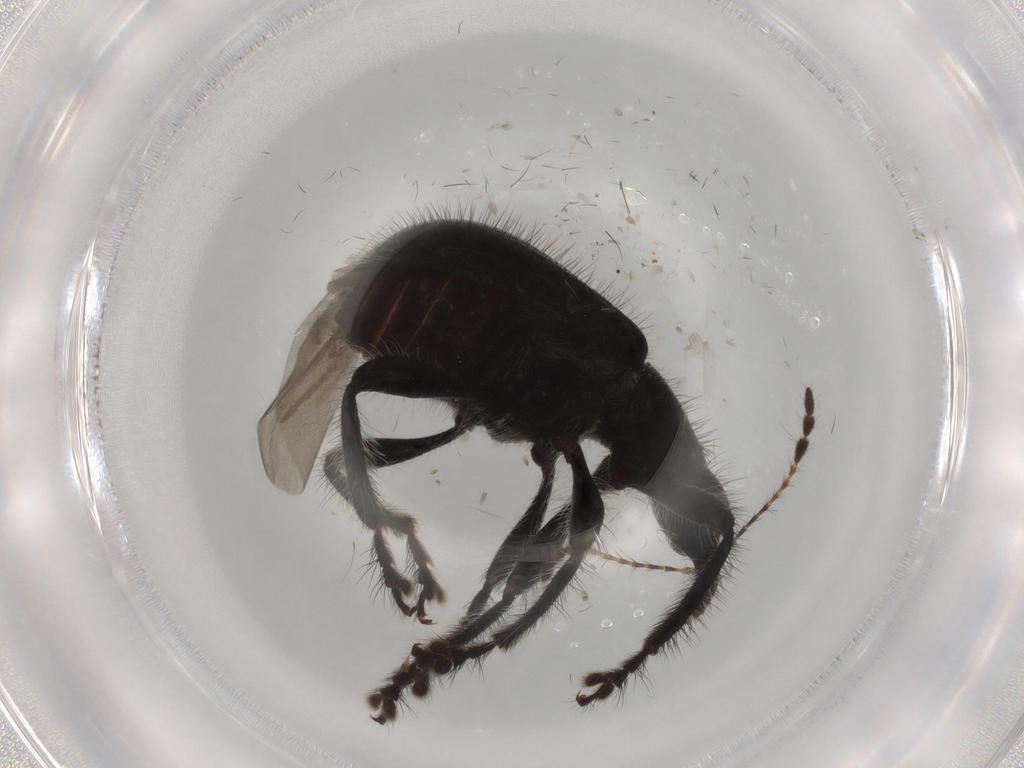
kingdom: Animalia
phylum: Arthropoda
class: Insecta
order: Coleoptera
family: Attelabidae
